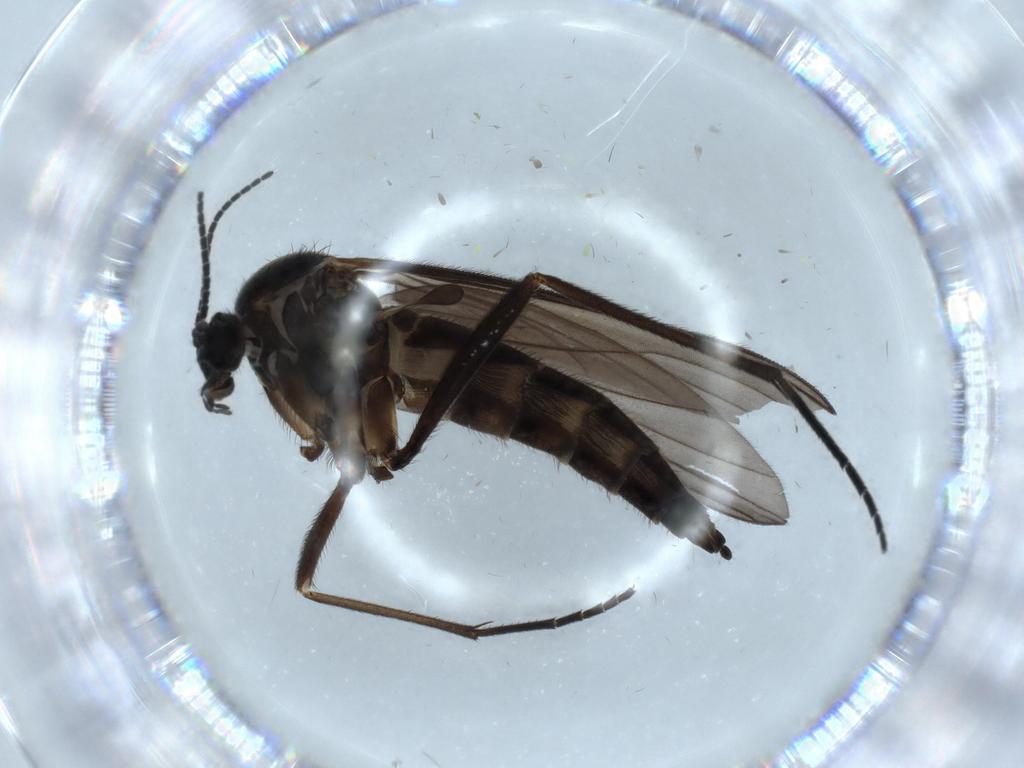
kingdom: Animalia
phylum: Arthropoda
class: Insecta
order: Diptera
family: Sciaridae
